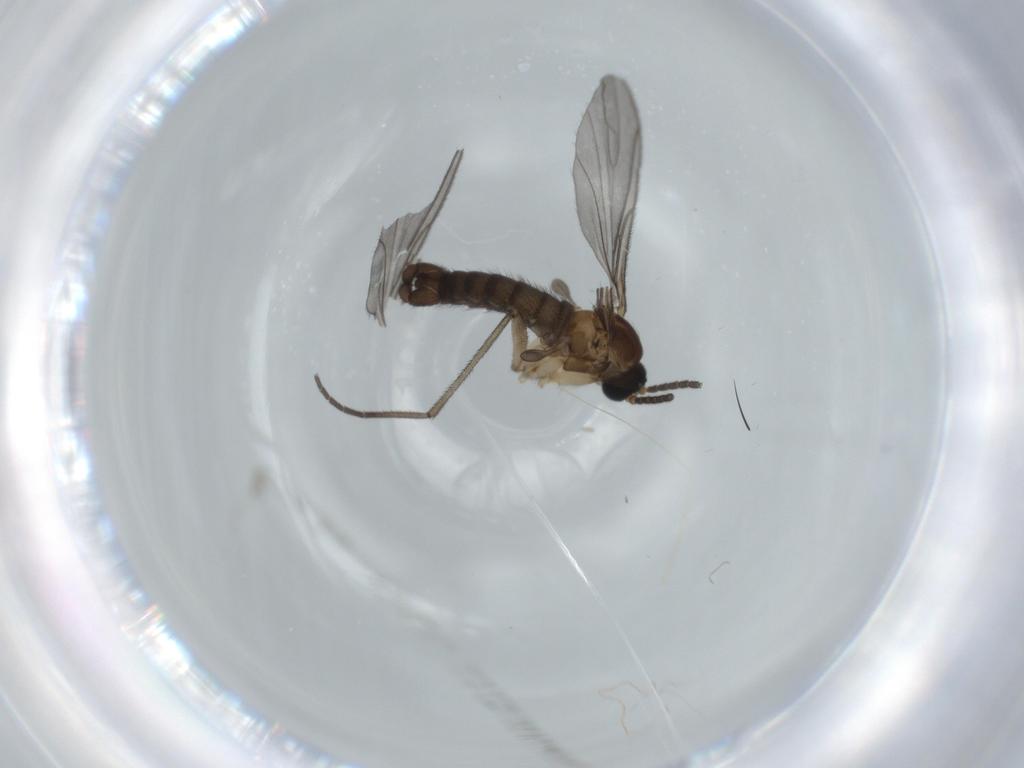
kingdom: Animalia
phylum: Arthropoda
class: Insecta
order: Diptera
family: Sciaridae
